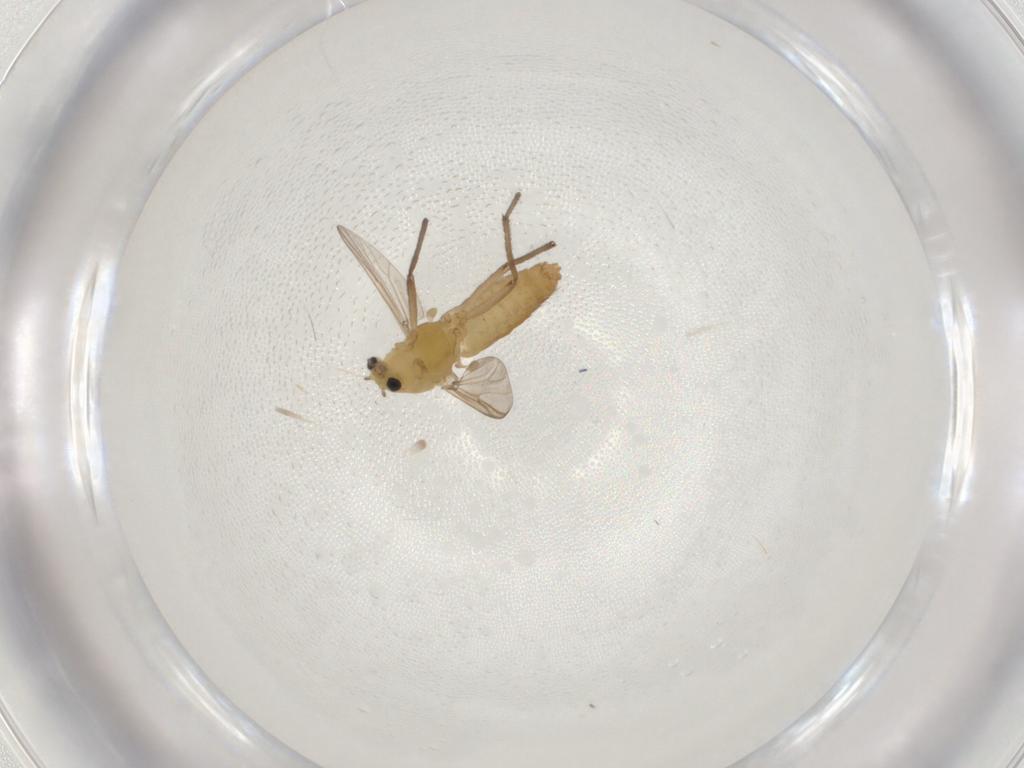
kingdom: Animalia
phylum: Arthropoda
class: Insecta
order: Diptera
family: Chironomidae
